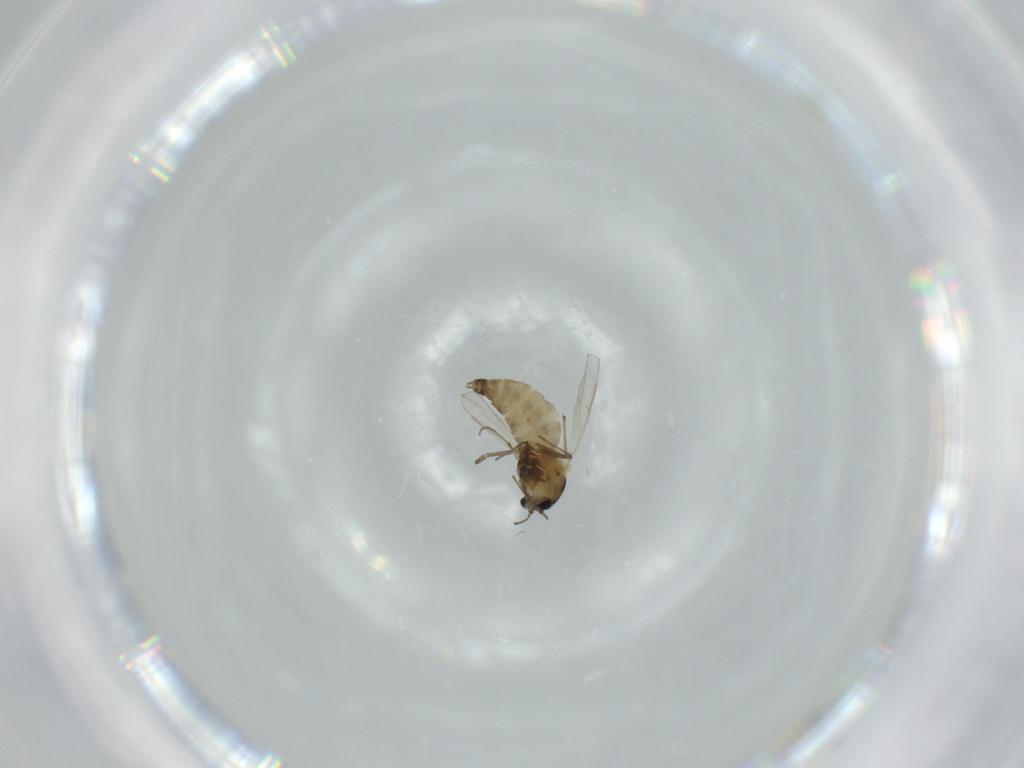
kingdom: Animalia
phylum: Arthropoda
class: Insecta
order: Diptera
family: Chironomidae
